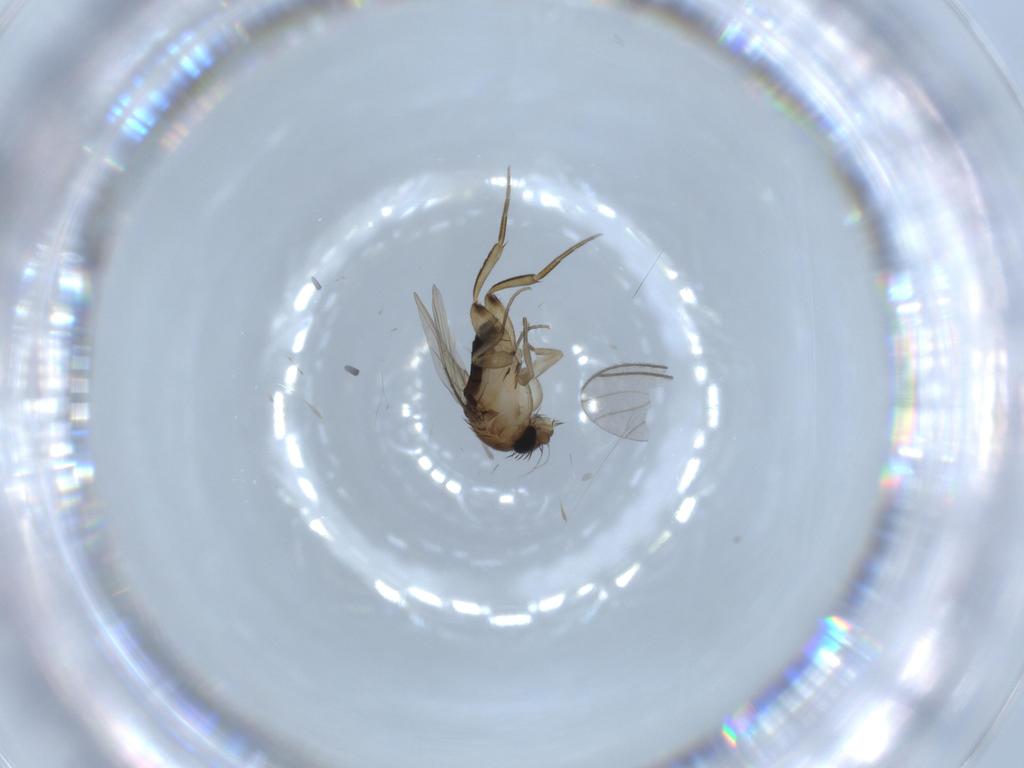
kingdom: Animalia
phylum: Arthropoda
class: Insecta
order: Diptera
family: Phoridae
